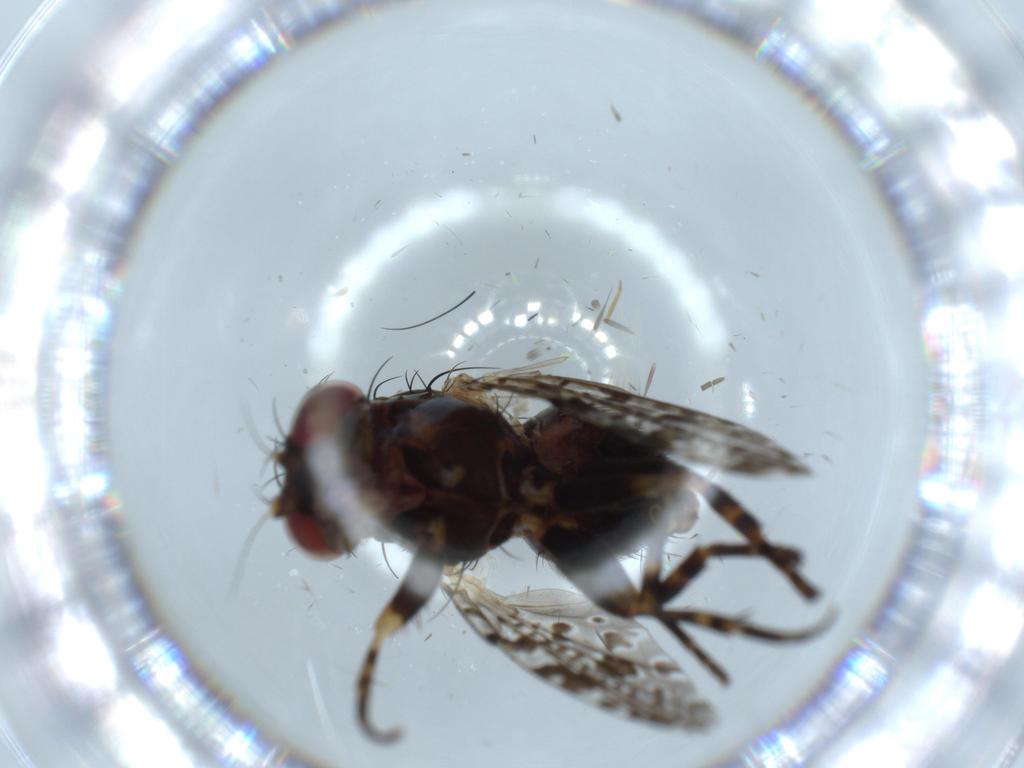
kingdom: Animalia
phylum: Arthropoda
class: Insecta
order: Diptera
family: Odiniidae
